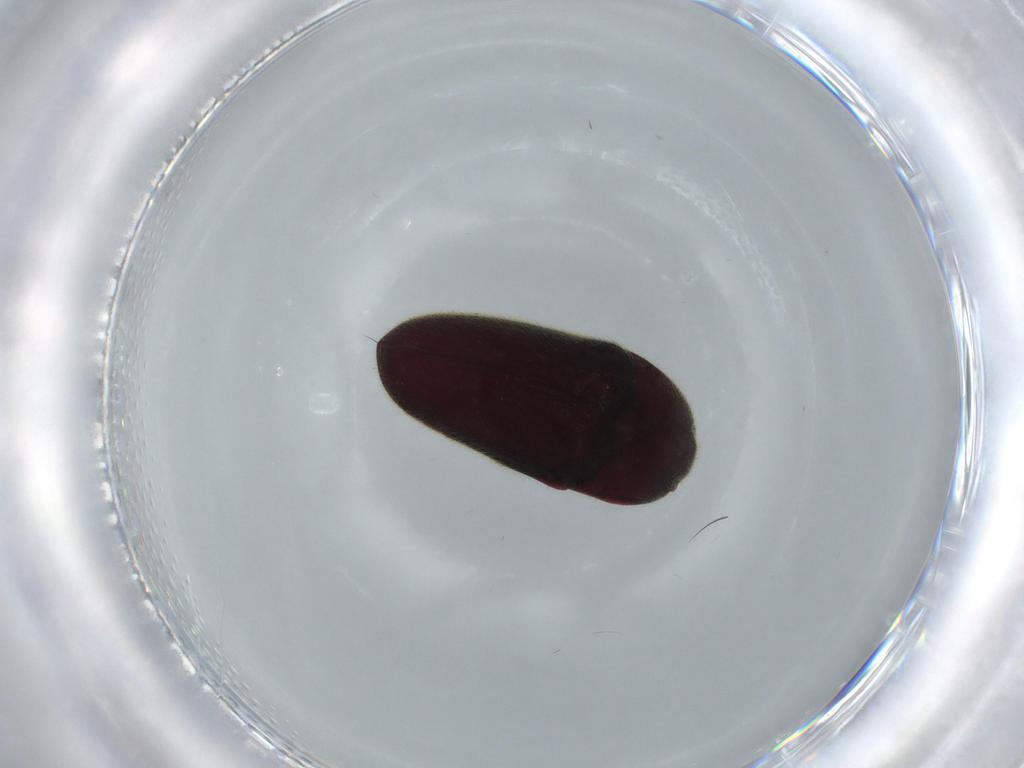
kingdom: Animalia
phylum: Arthropoda
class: Insecta
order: Coleoptera
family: Throscidae
